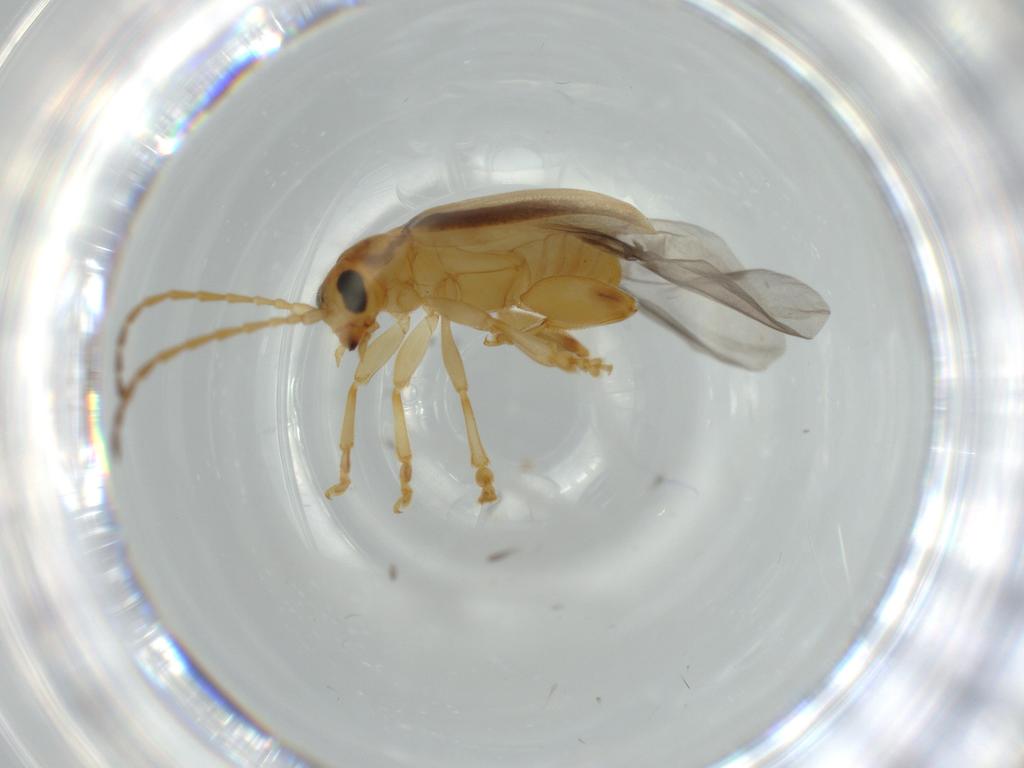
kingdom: Animalia
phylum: Arthropoda
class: Insecta
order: Coleoptera
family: Chrysomelidae
